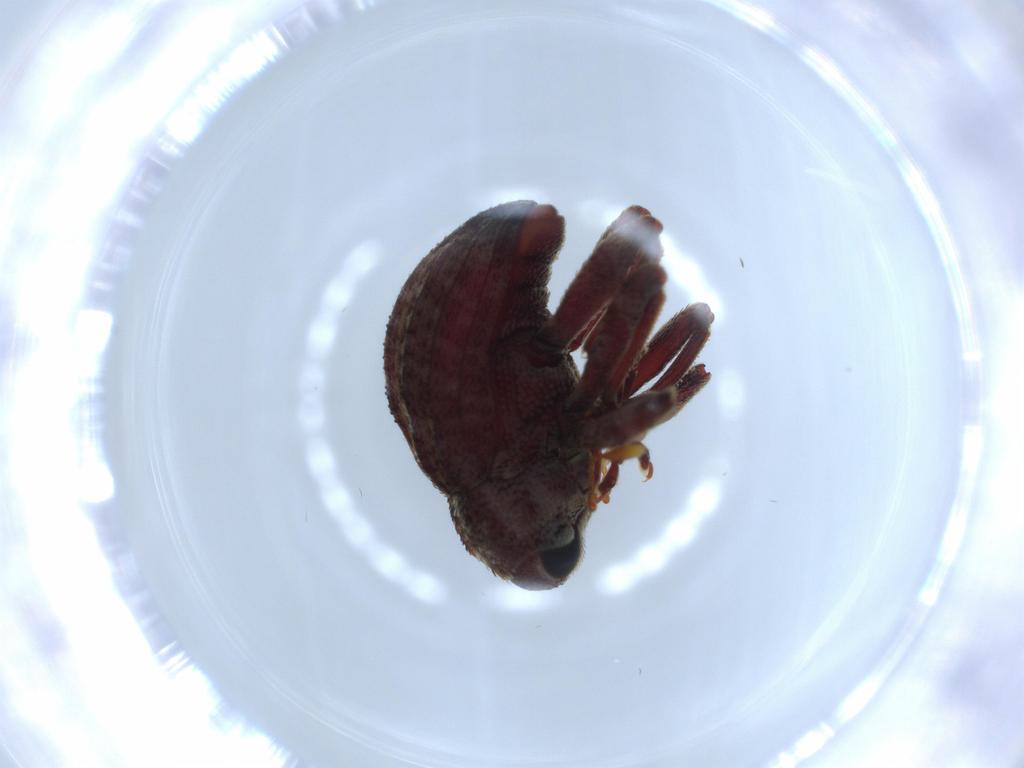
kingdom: Animalia
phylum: Arthropoda
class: Insecta
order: Coleoptera
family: Curculionidae
